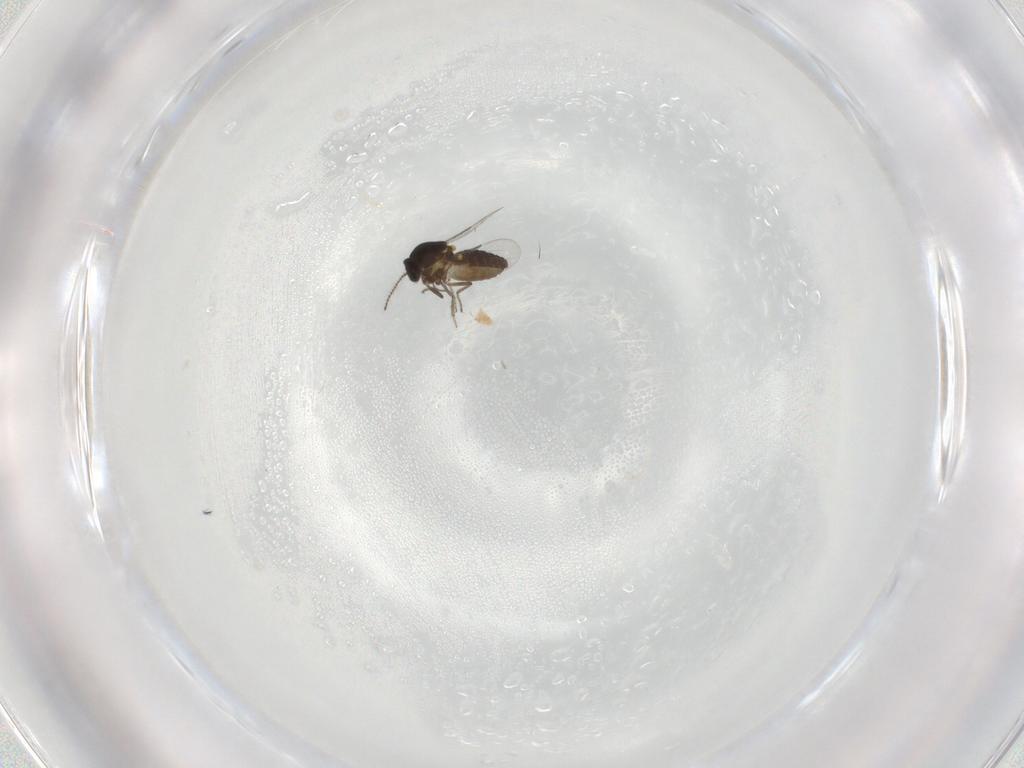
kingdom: Animalia
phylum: Arthropoda
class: Insecta
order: Diptera
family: Ceratopogonidae
